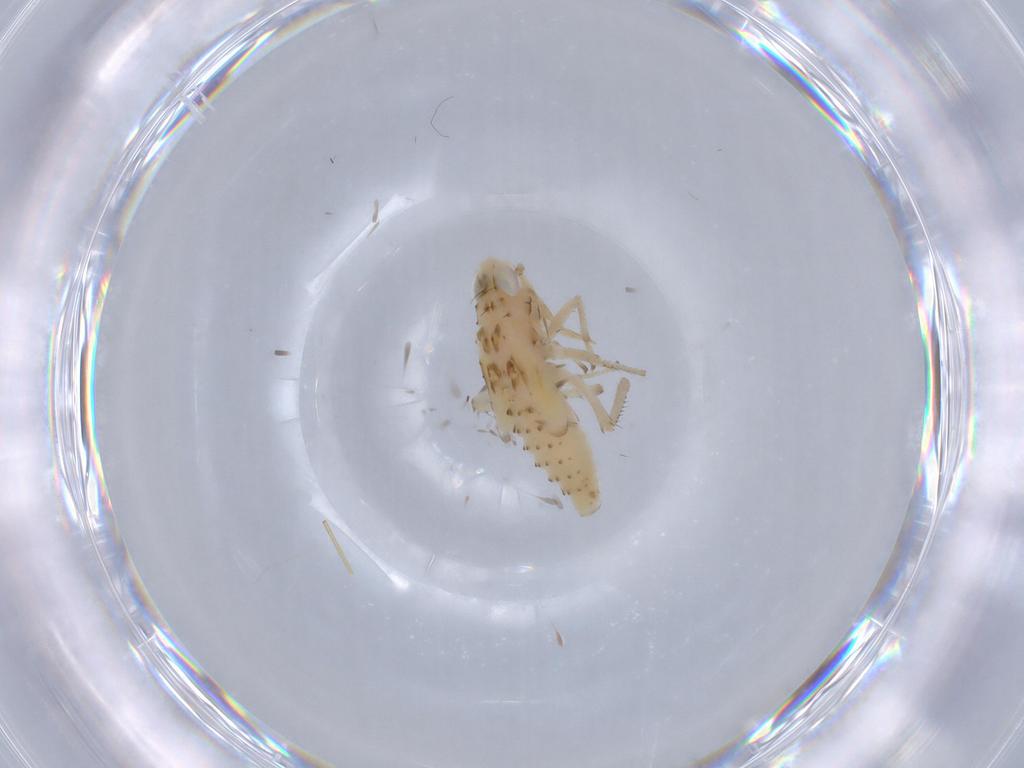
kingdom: Animalia
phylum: Arthropoda
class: Insecta
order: Hemiptera
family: Cicadellidae
